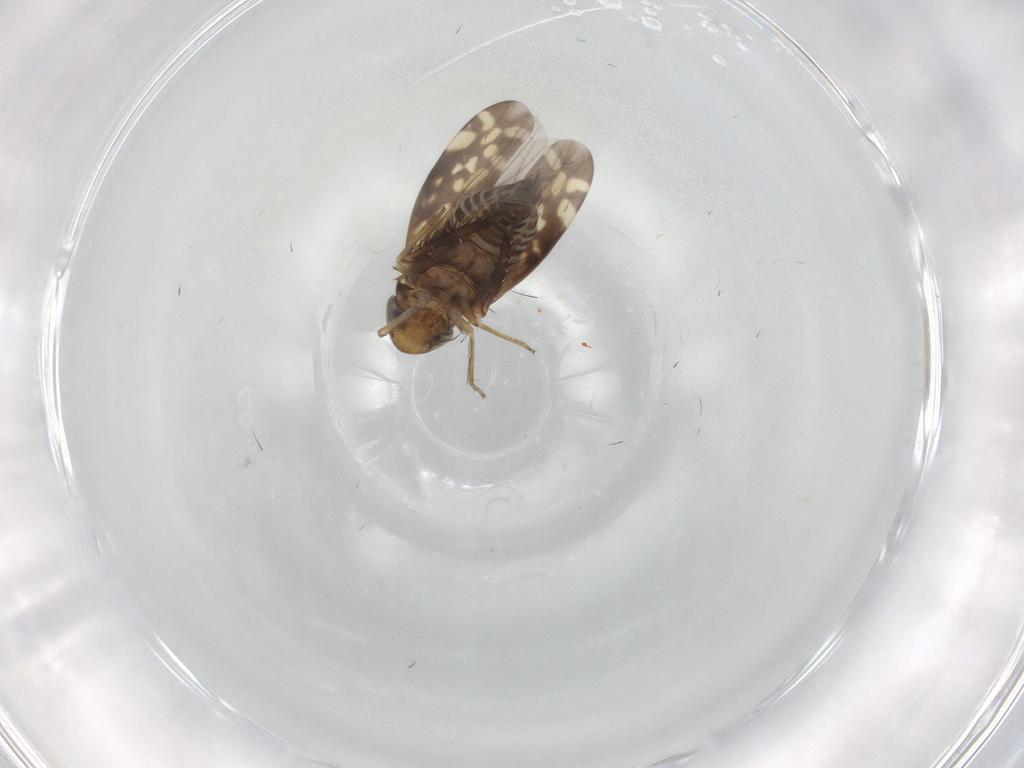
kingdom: Animalia
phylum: Arthropoda
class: Insecta
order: Hemiptera
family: Cicadellidae
